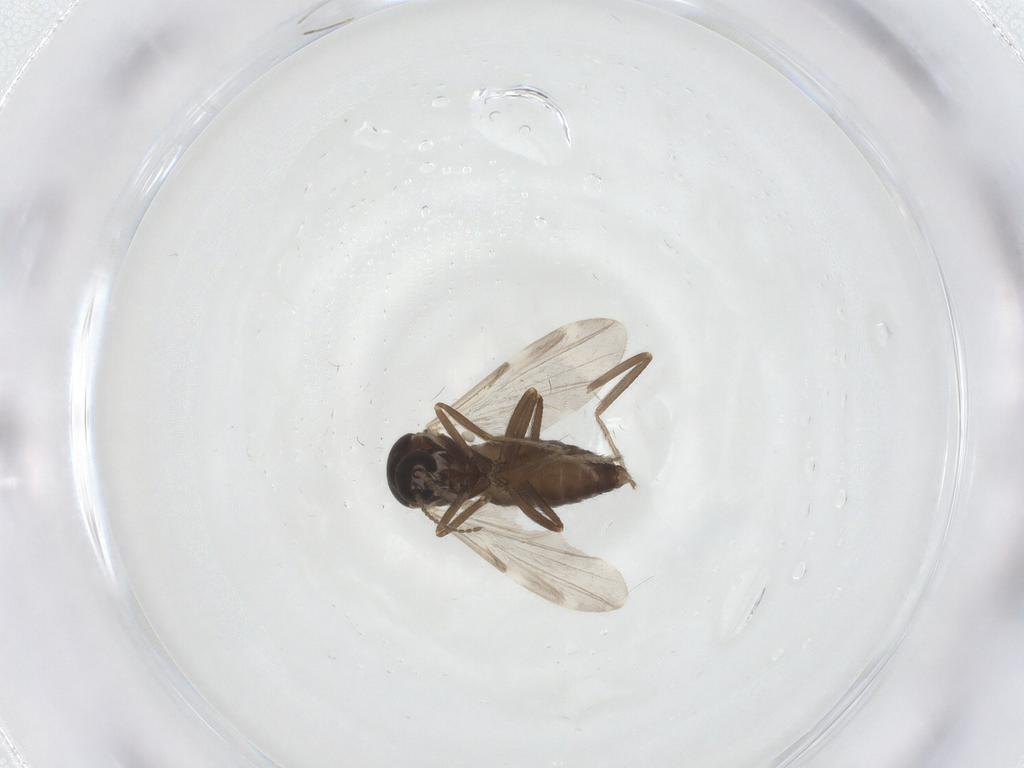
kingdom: Animalia
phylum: Arthropoda
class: Insecta
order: Diptera
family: Ceratopogonidae
